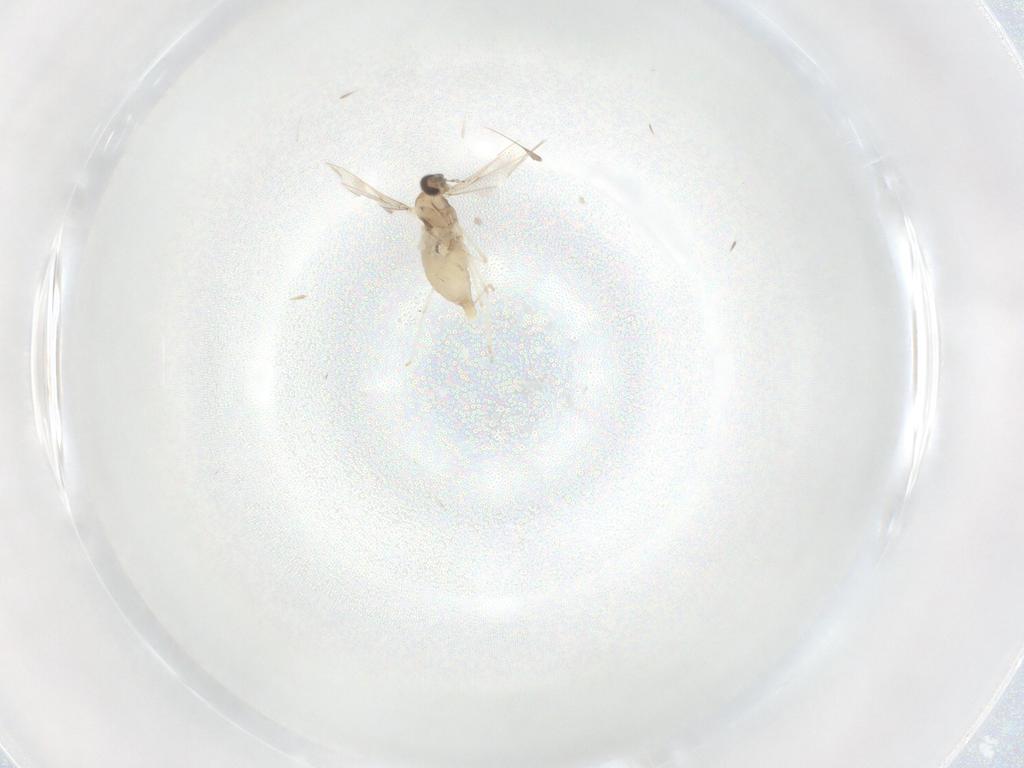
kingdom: Animalia
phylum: Arthropoda
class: Insecta
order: Diptera
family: Cecidomyiidae
